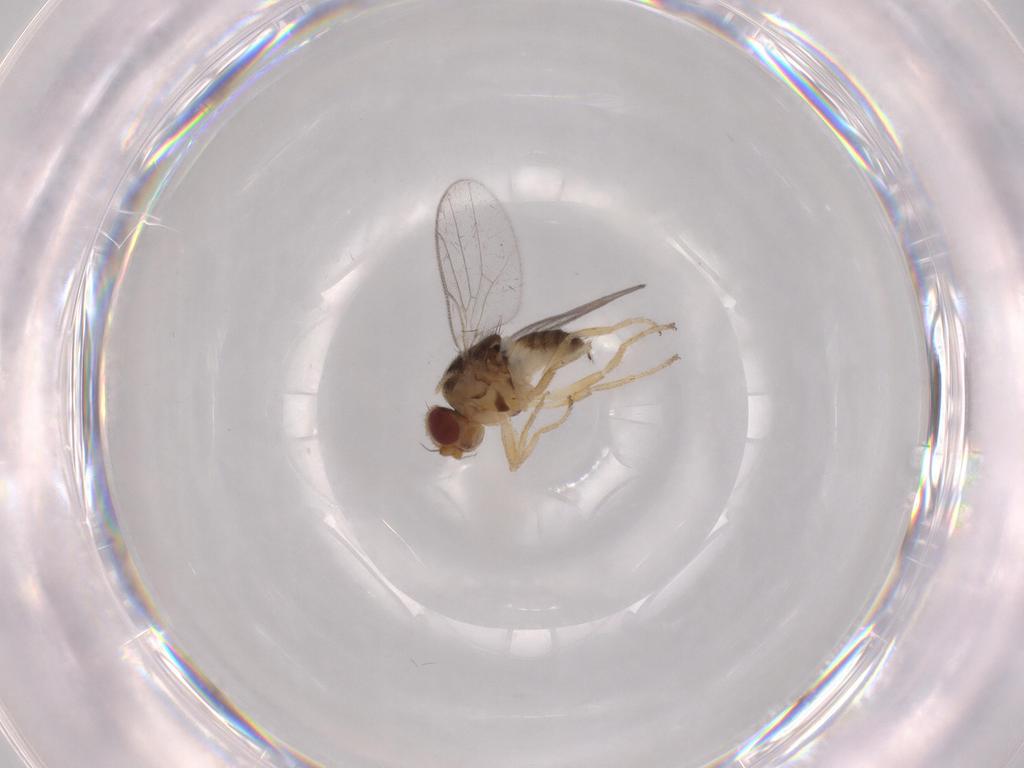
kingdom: Animalia
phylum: Arthropoda
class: Insecta
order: Diptera
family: Chloropidae
